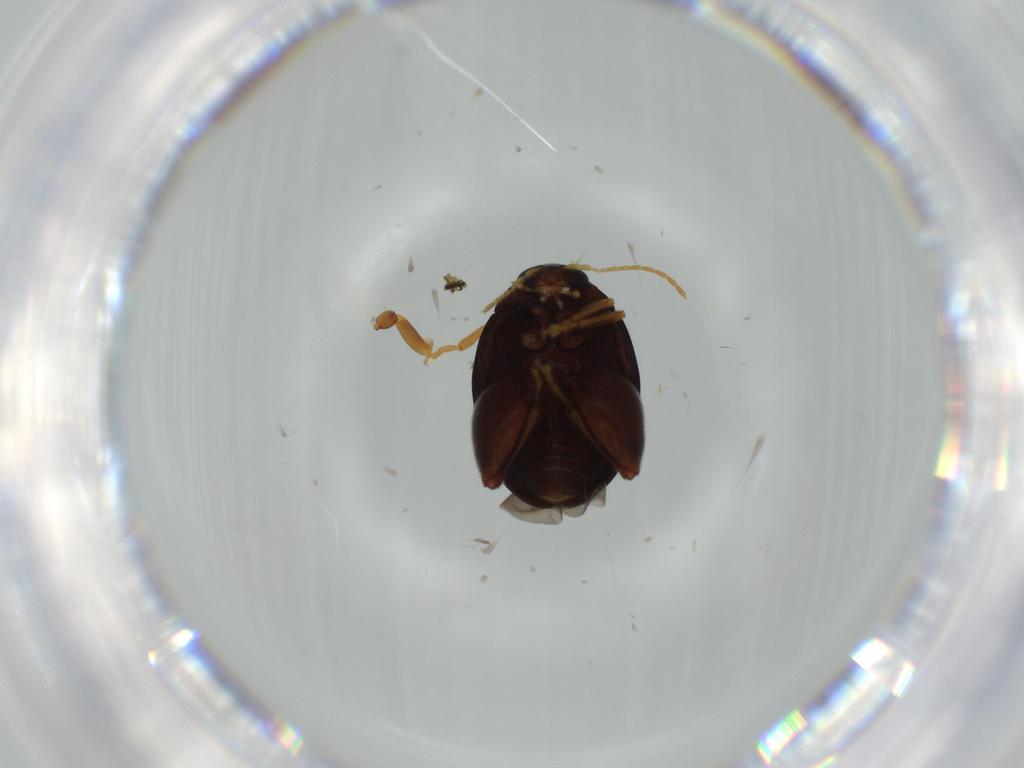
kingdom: Animalia
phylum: Arthropoda
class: Insecta
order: Coleoptera
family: Chrysomelidae
